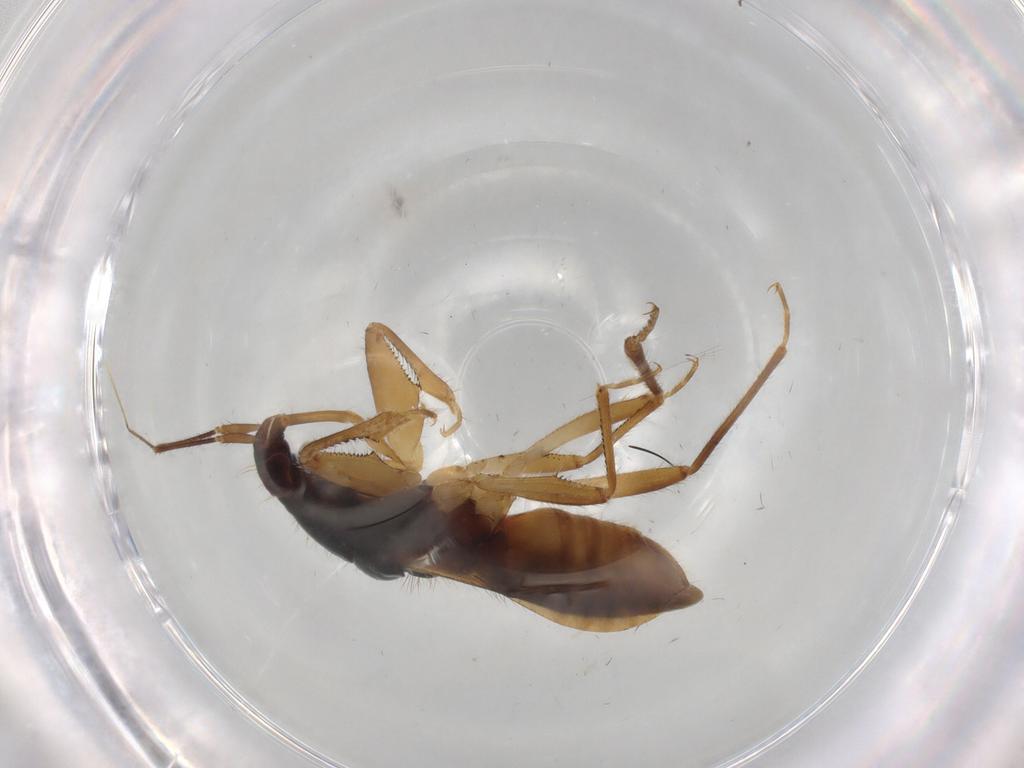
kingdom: Animalia
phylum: Arthropoda
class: Insecta
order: Hemiptera
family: Nabidae
